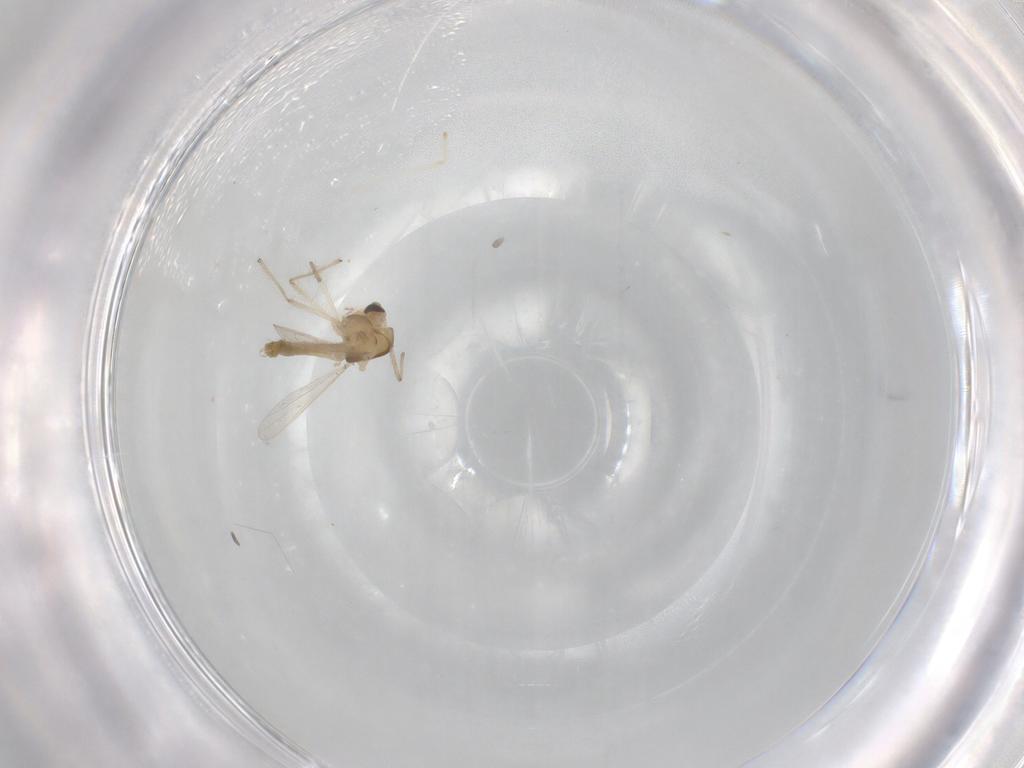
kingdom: Animalia
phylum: Arthropoda
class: Insecta
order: Diptera
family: Chironomidae
